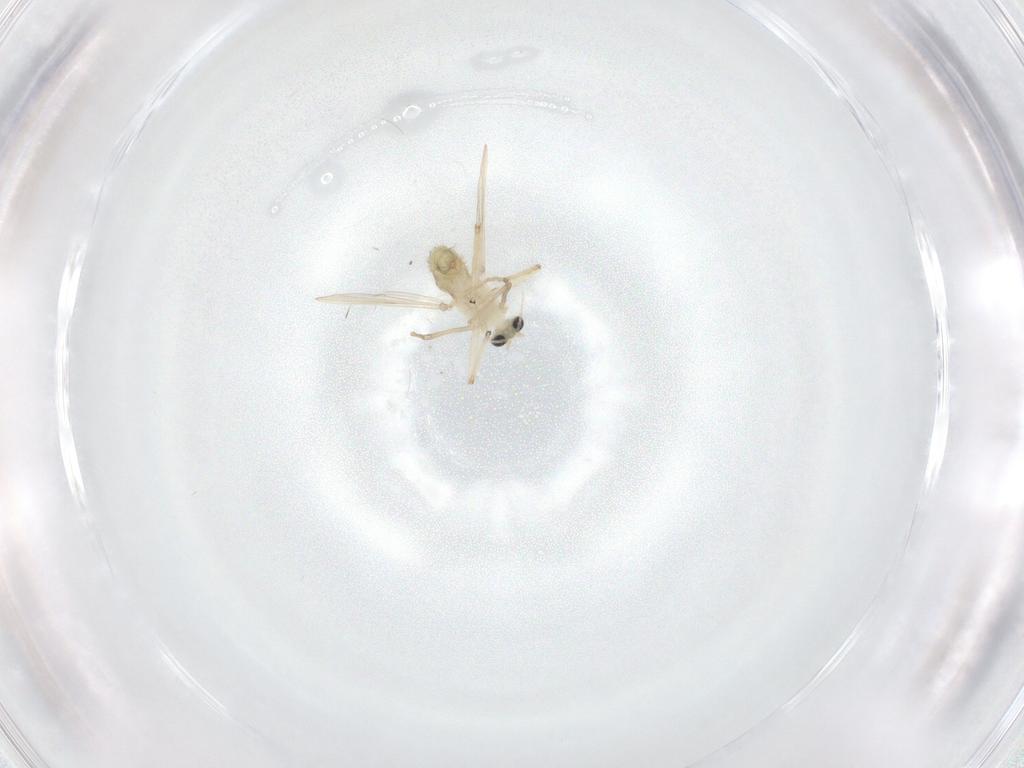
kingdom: Animalia
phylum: Arthropoda
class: Insecta
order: Diptera
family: Chironomidae
